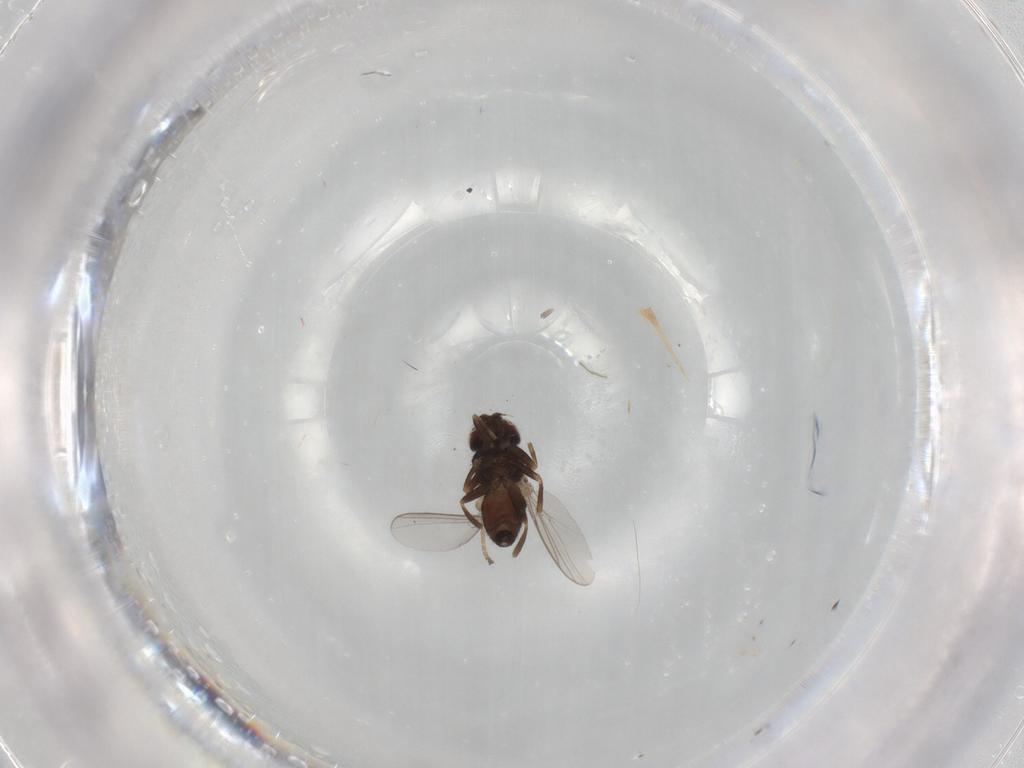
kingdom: Animalia
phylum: Arthropoda
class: Insecta
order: Diptera
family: Chloropidae
